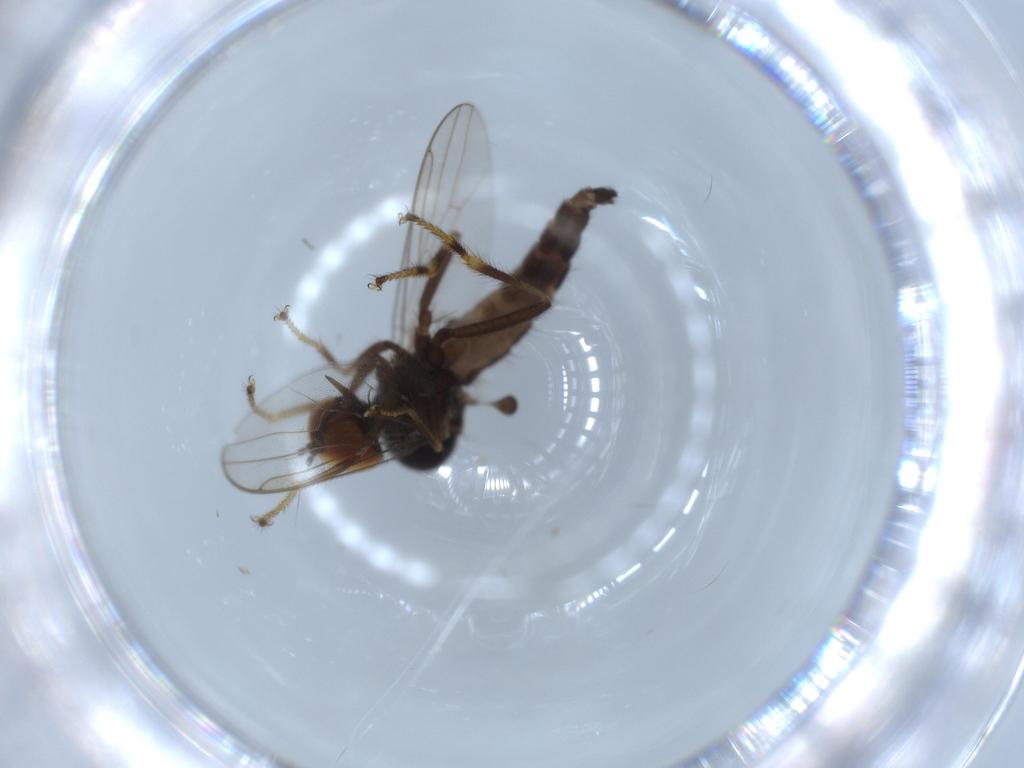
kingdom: Animalia
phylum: Arthropoda
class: Insecta
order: Diptera
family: Hybotidae
